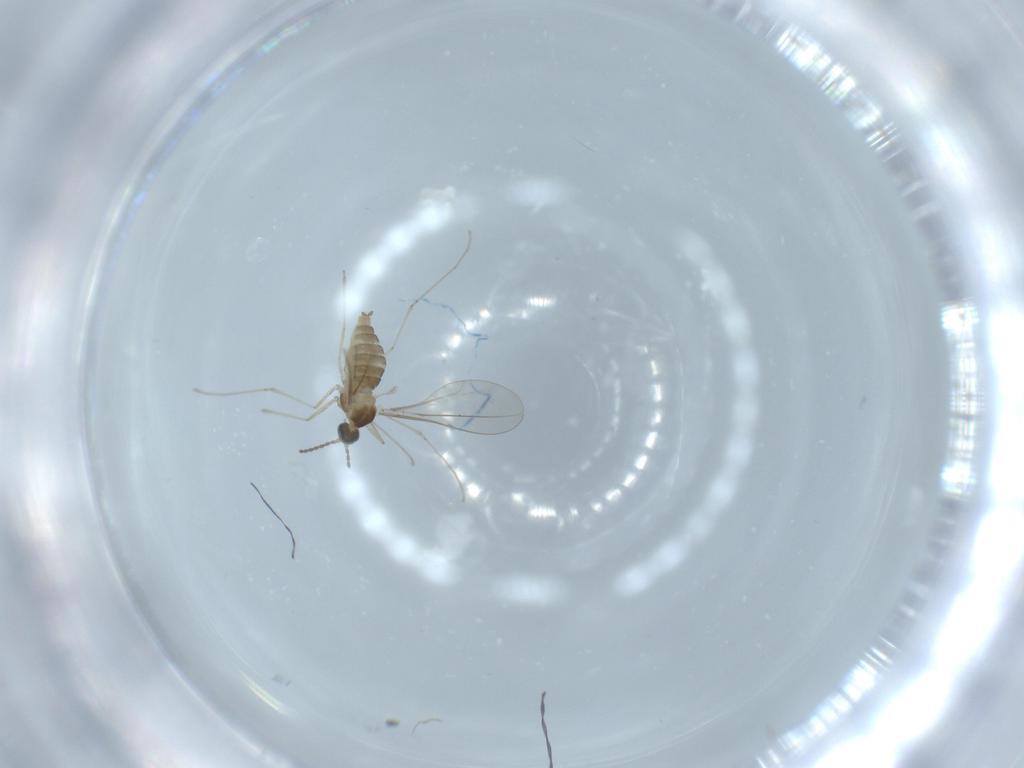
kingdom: Animalia
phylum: Arthropoda
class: Insecta
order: Diptera
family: Cecidomyiidae
